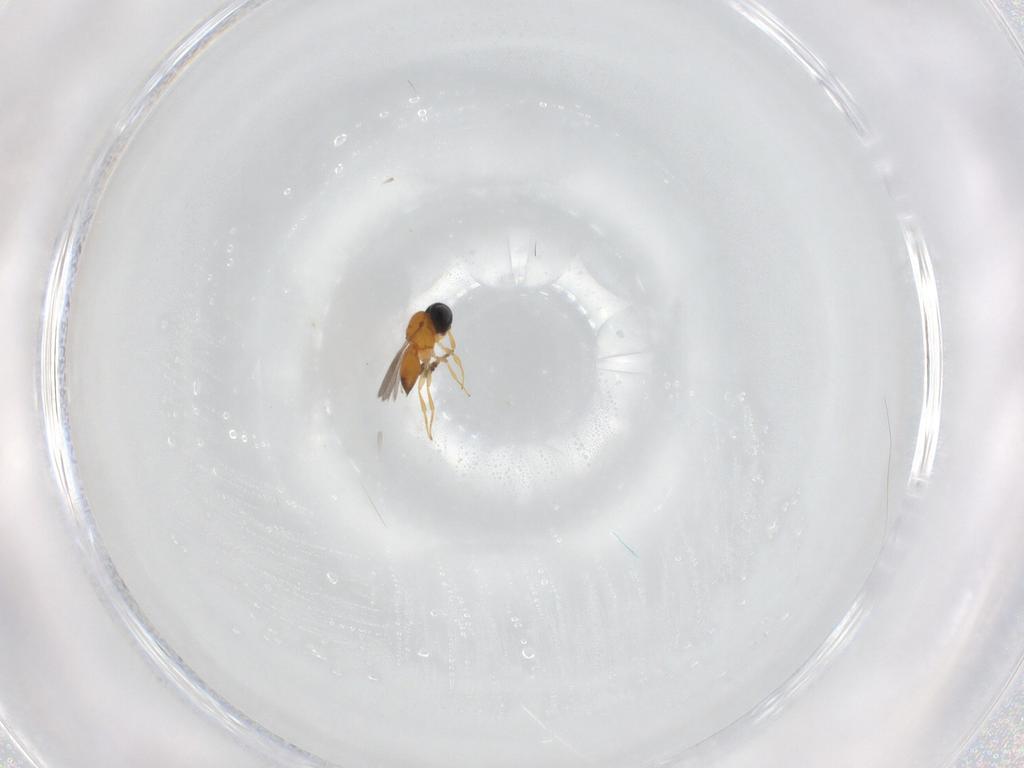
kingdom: Animalia
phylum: Arthropoda
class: Insecta
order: Hymenoptera
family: Scelionidae
